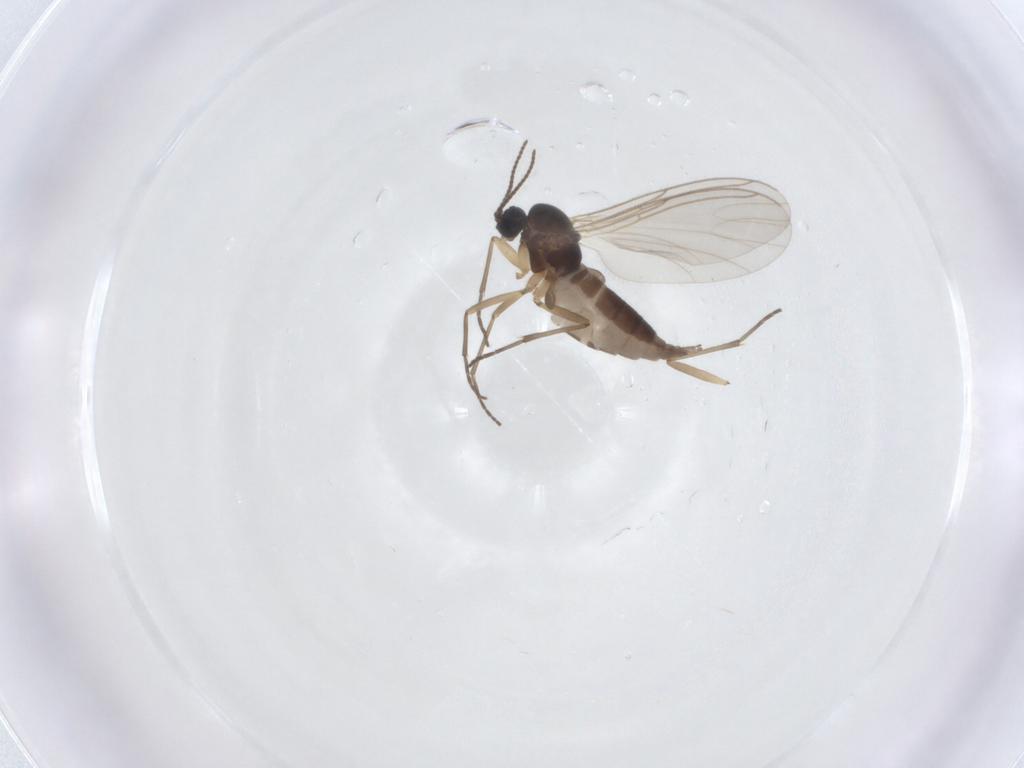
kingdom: Animalia
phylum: Arthropoda
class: Insecta
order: Diptera
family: Sciaridae
